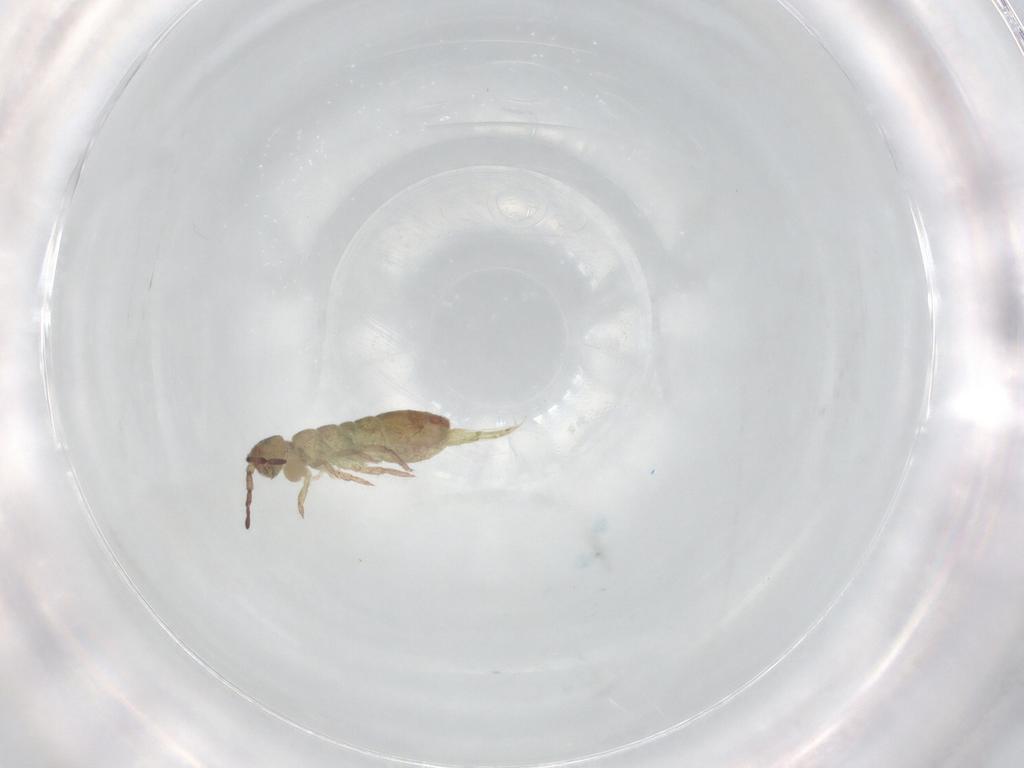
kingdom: Animalia
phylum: Arthropoda
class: Collembola
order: Entomobryomorpha
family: Isotomidae
